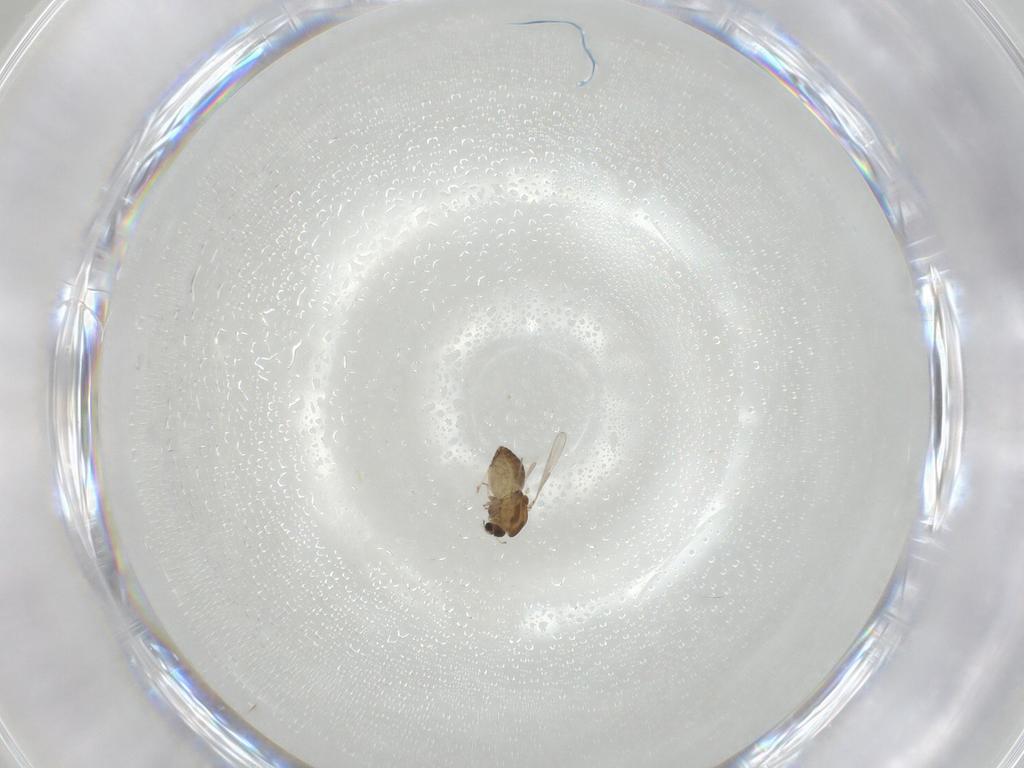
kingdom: Animalia
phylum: Arthropoda
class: Insecta
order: Diptera
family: Chironomidae
